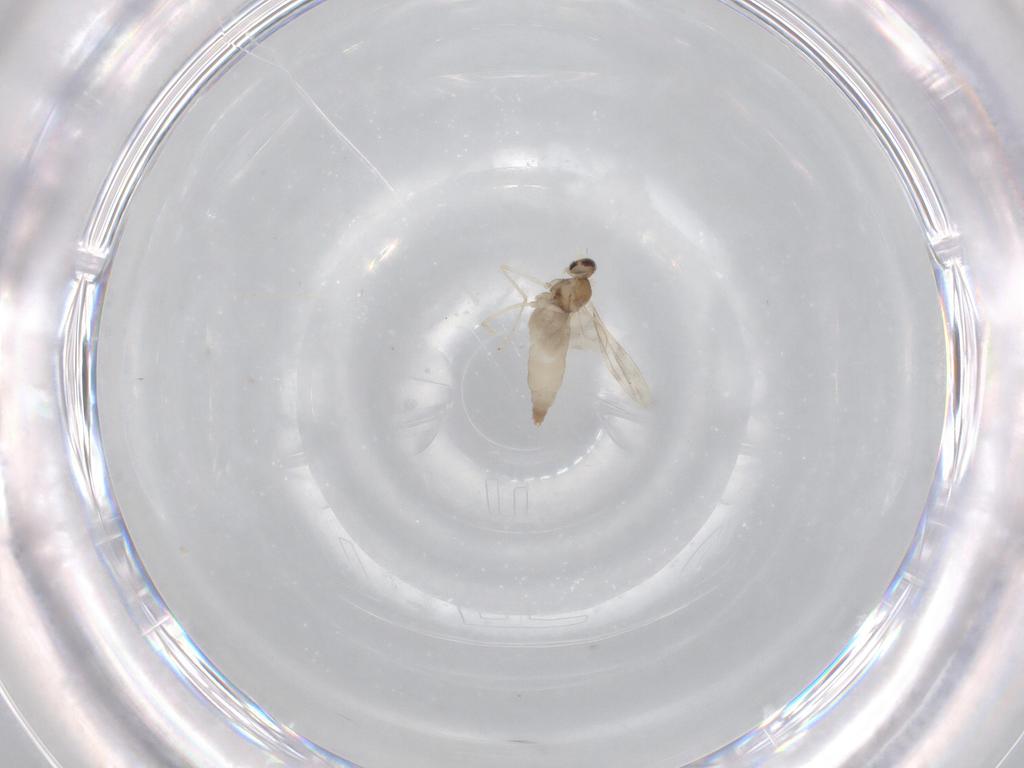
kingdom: Animalia
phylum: Arthropoda
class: Insecta
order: Diptera
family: Cecidomyiidae
